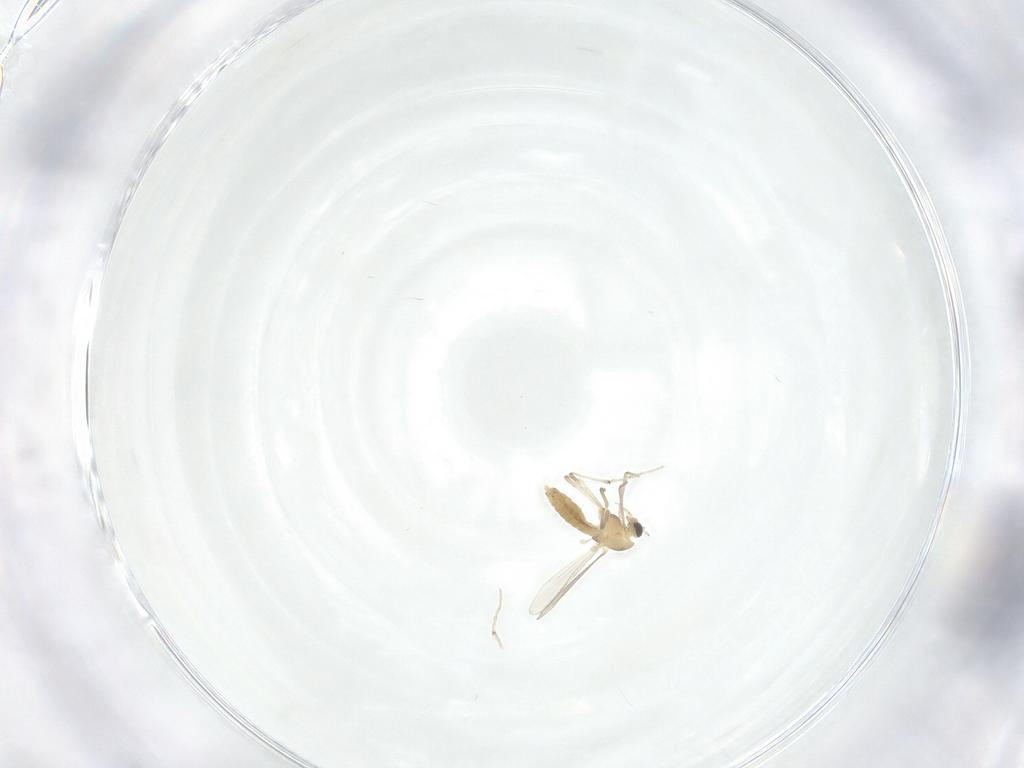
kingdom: Animalia
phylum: Arthropoda
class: Insecta
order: Diptera
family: Chironomidae
